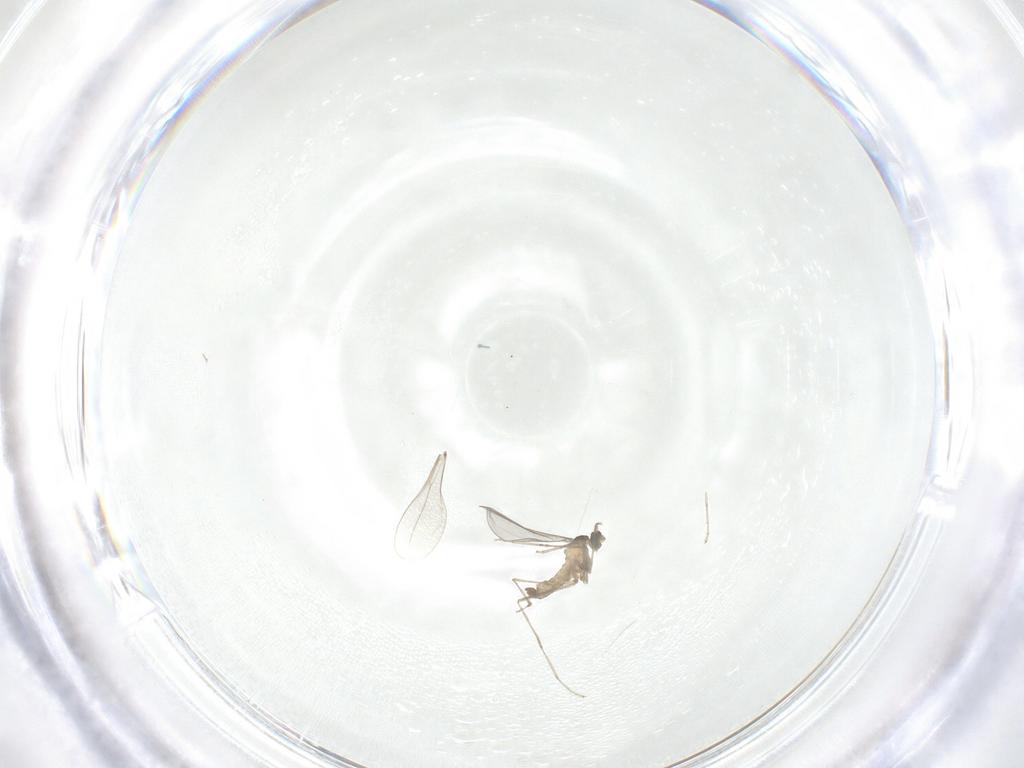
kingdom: Animalia
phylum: Arthropoda
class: Insecta
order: Diptera
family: Cecidomyiidae
